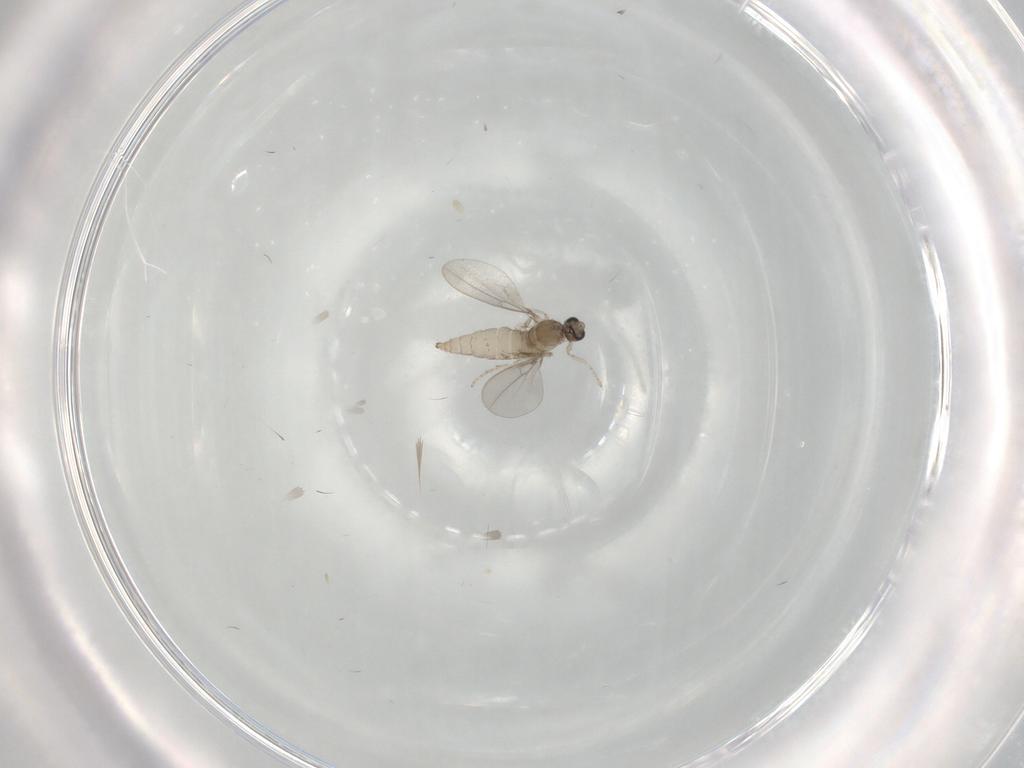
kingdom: Animalia
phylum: Arthropoda
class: Insecta
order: Diptera
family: Cecidomyiidae
